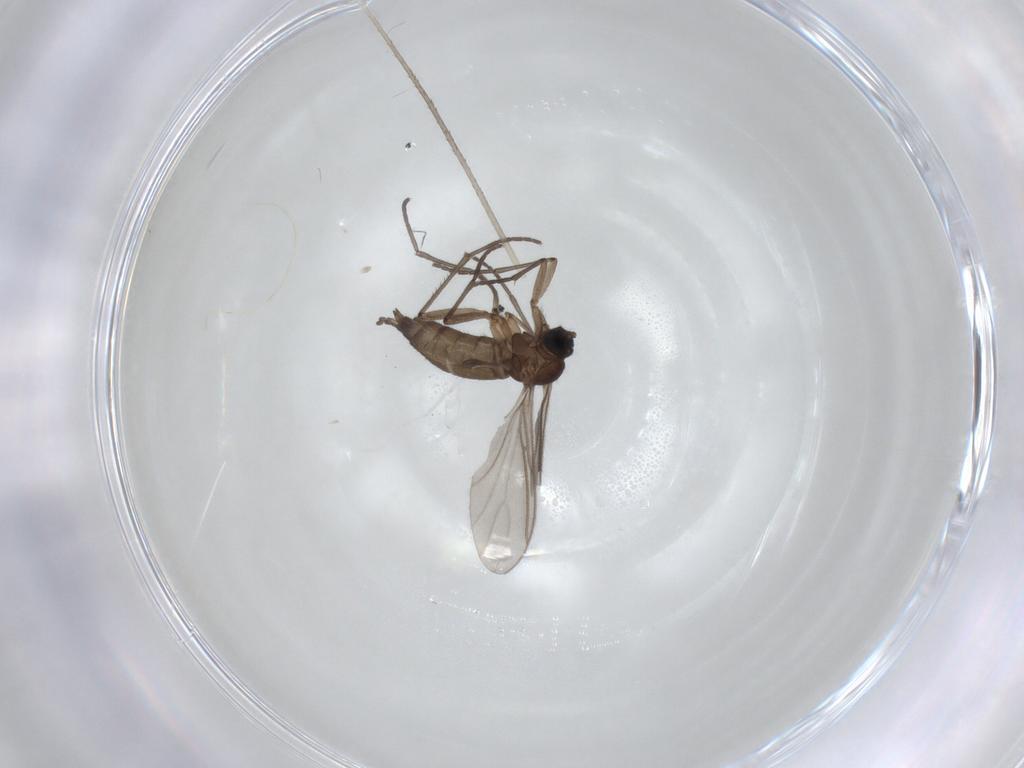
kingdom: Animalia
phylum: Arthropoda
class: Insecta
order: Diptera
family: Sciaridae
